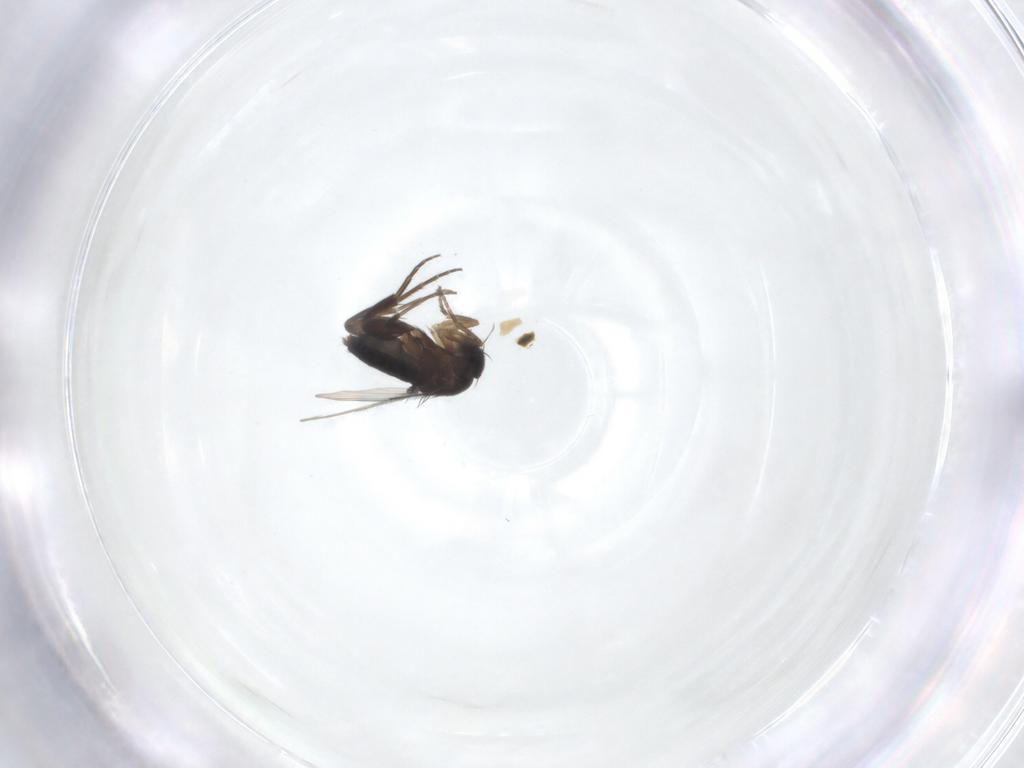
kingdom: Animalia
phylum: Arthropoda
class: Insecta
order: Diptera
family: Phoridae
